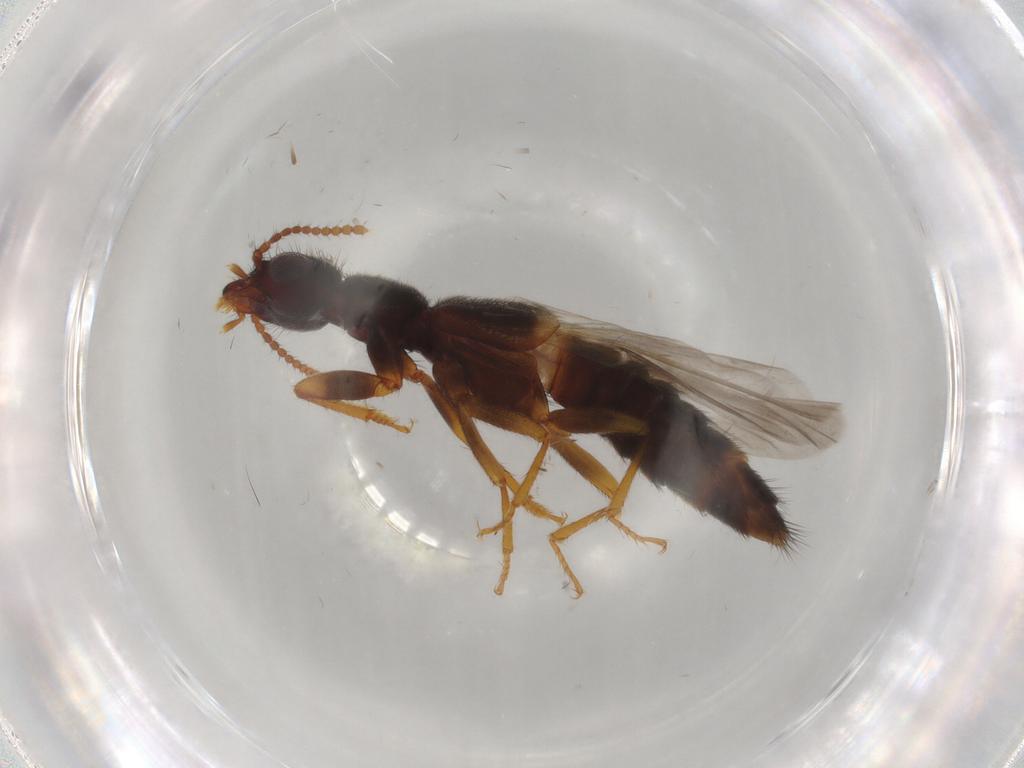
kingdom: Animalia
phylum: Arthropoda
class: Insecta
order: Coleoptera
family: Staphylinidae
